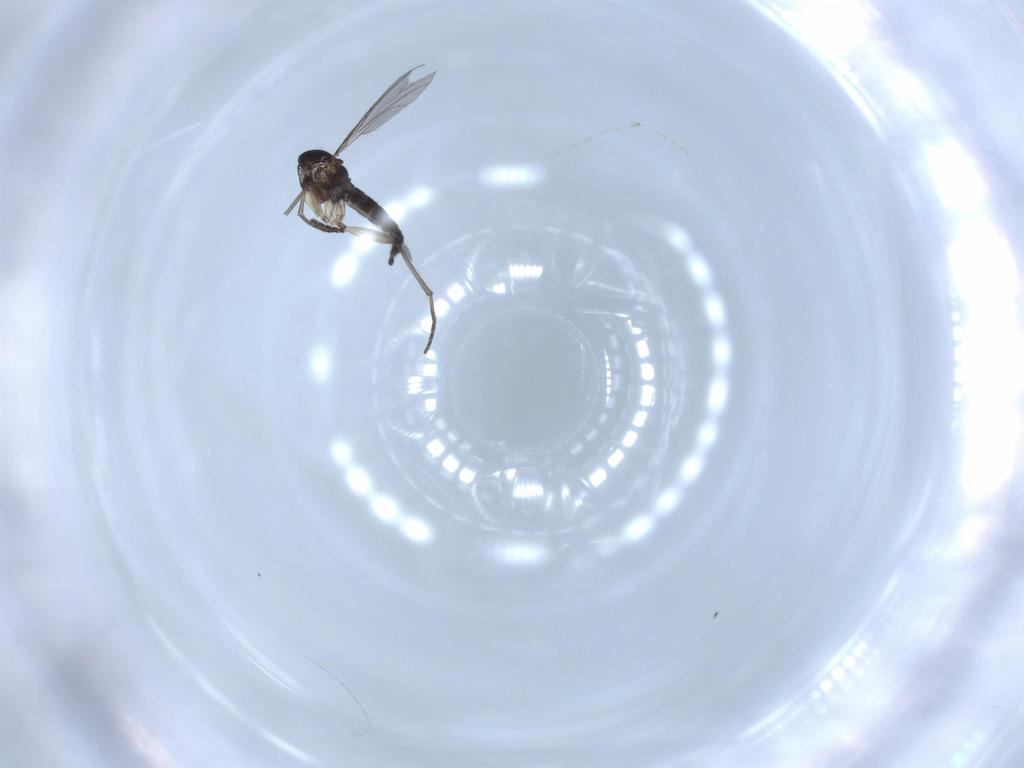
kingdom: Animalia
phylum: Arthropoda
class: Insecta
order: Diptera
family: Sciaridae
